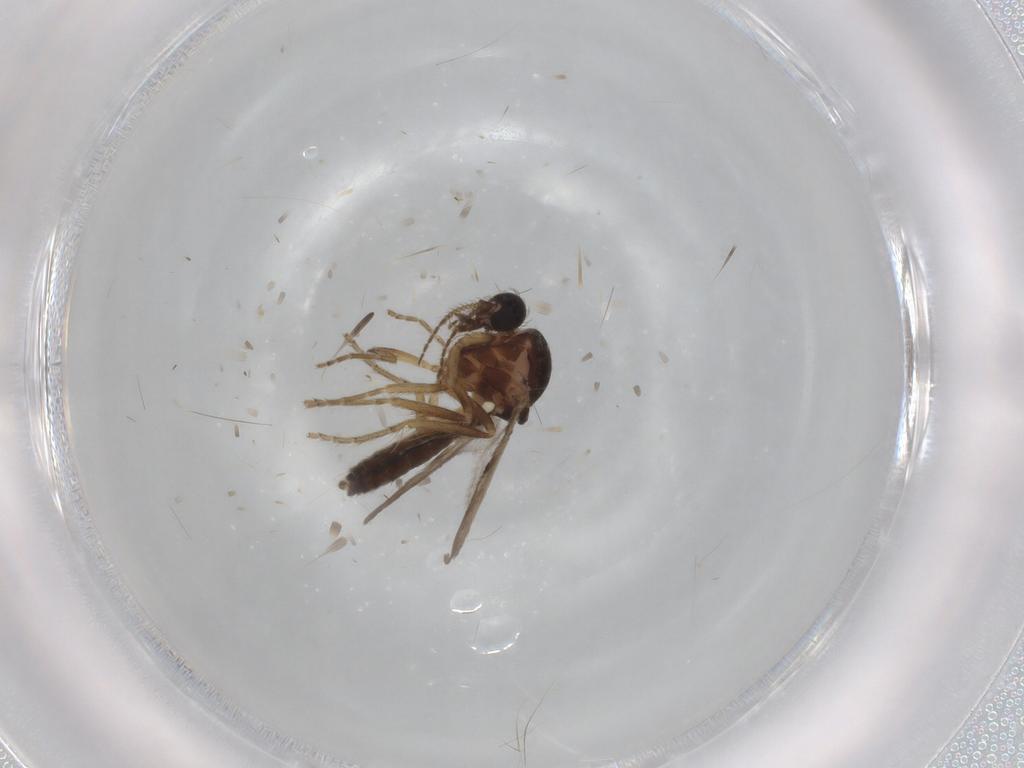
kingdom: Animalia
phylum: Arthropoda
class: Insecta
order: Diptera
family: Ceratopogonidae
